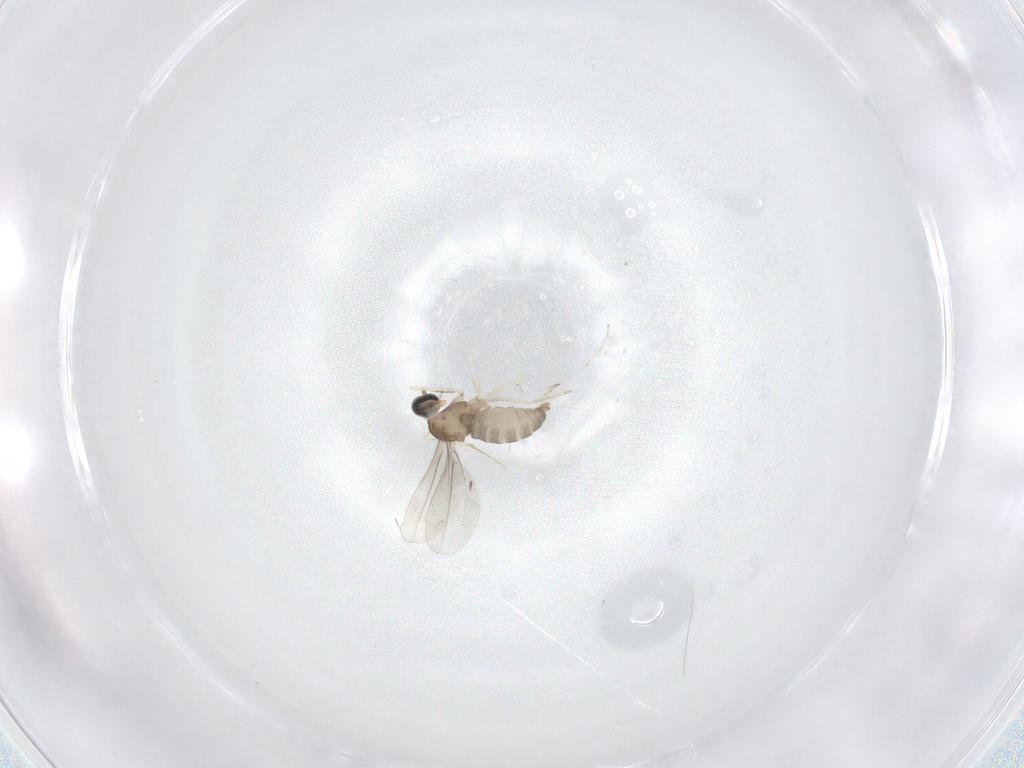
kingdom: Animalia
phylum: Arthropoda
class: Insecta
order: Diptera
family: Cecidomyiidae
